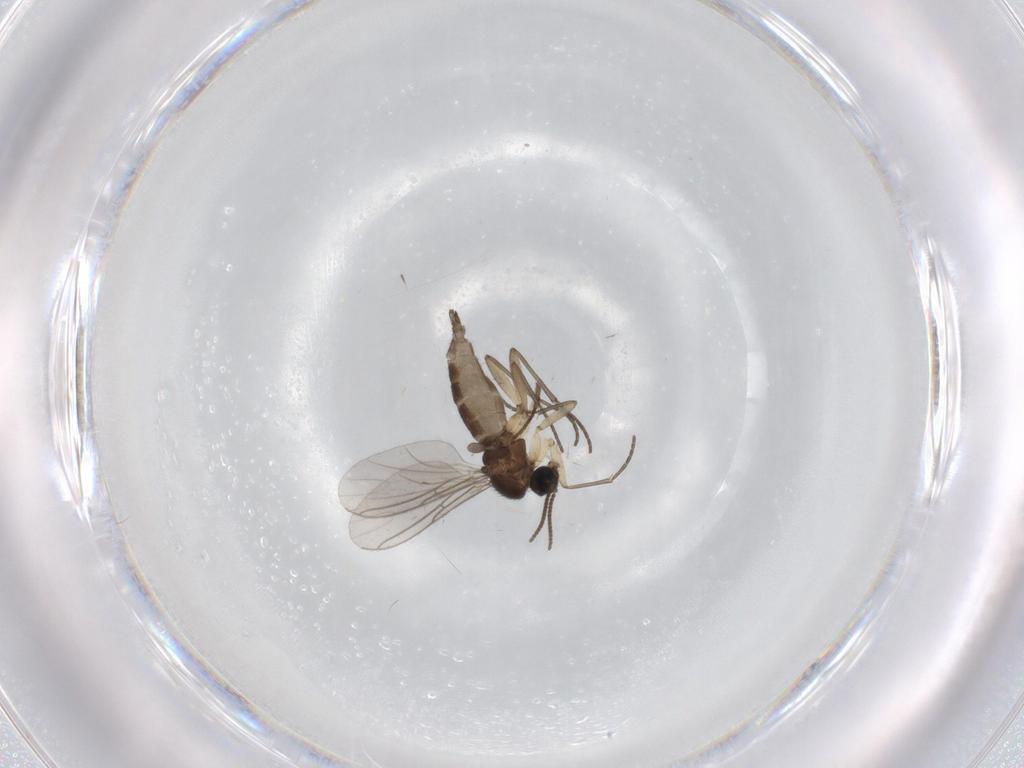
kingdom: Animalia
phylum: Arthropoda
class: Insecta
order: Diptera
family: Sciaridae
